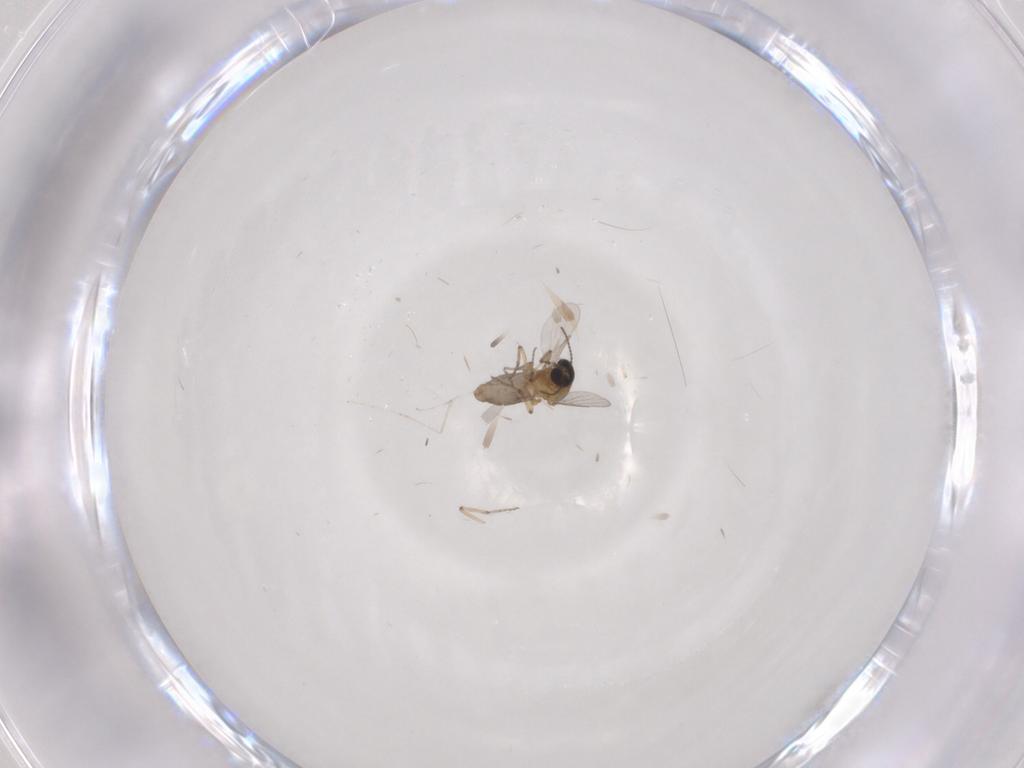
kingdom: Animalia
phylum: Arthropoda
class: Insecta
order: Diptera
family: Ceratopogonidae
